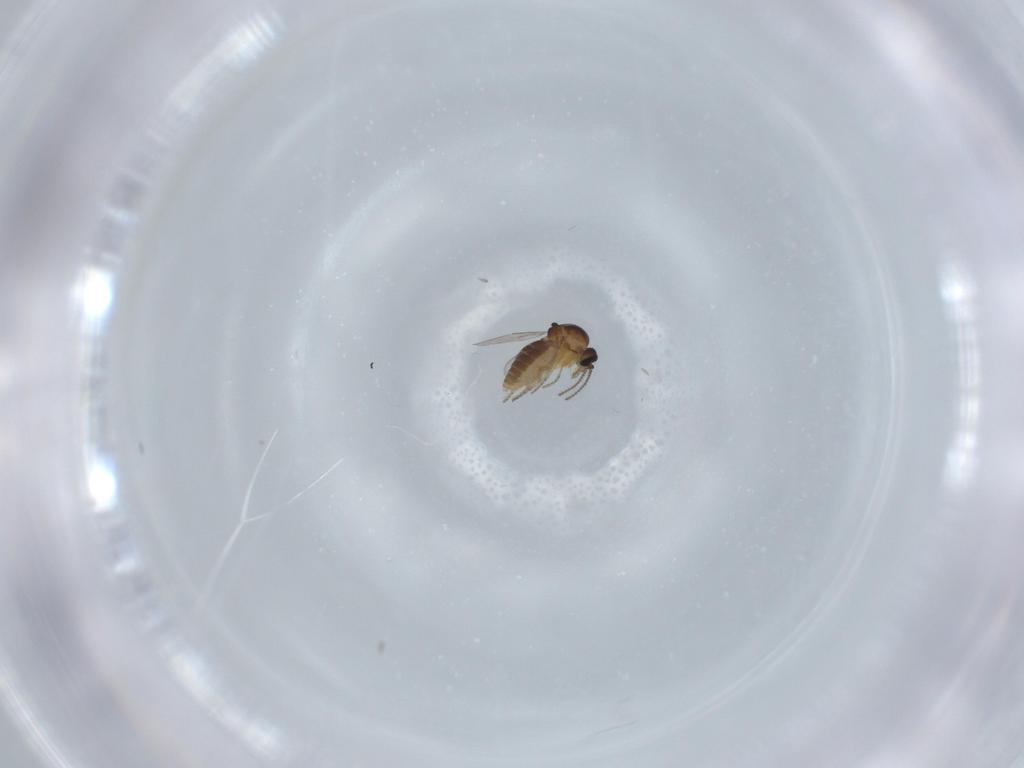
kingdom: Animalia
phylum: Arthropoda
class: Insecta
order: Diptera
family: Ceratopogonidae
